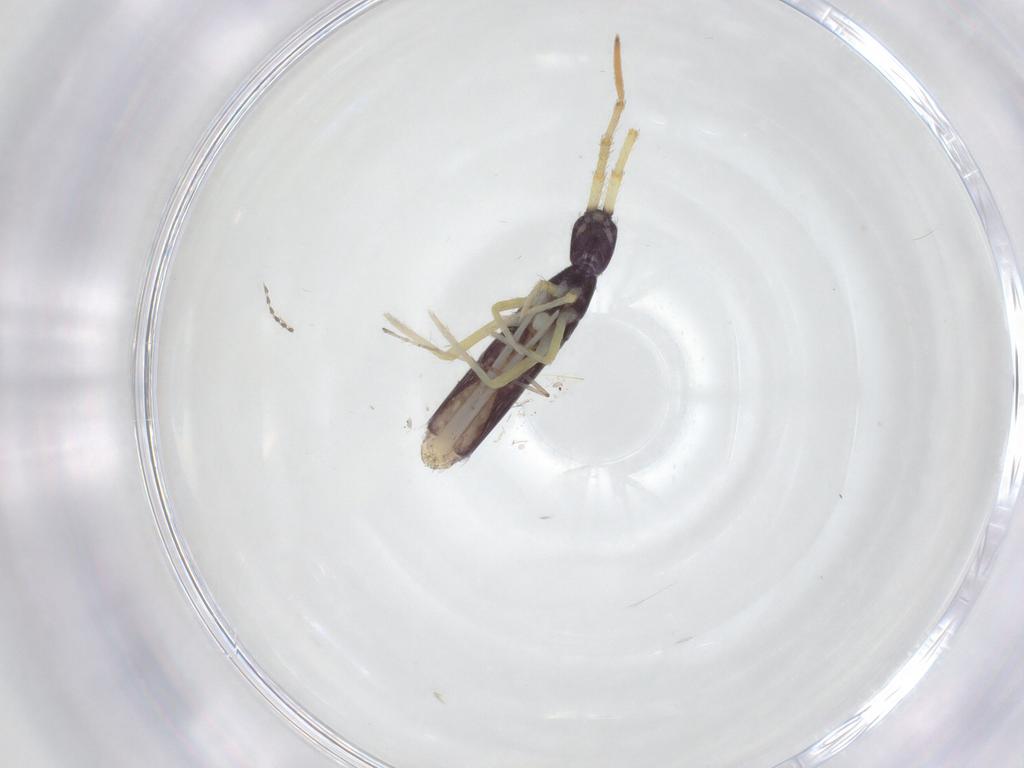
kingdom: Animalia
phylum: Arthropoda
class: Collembola
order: Entomobryomorpha
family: Entomobryidae
